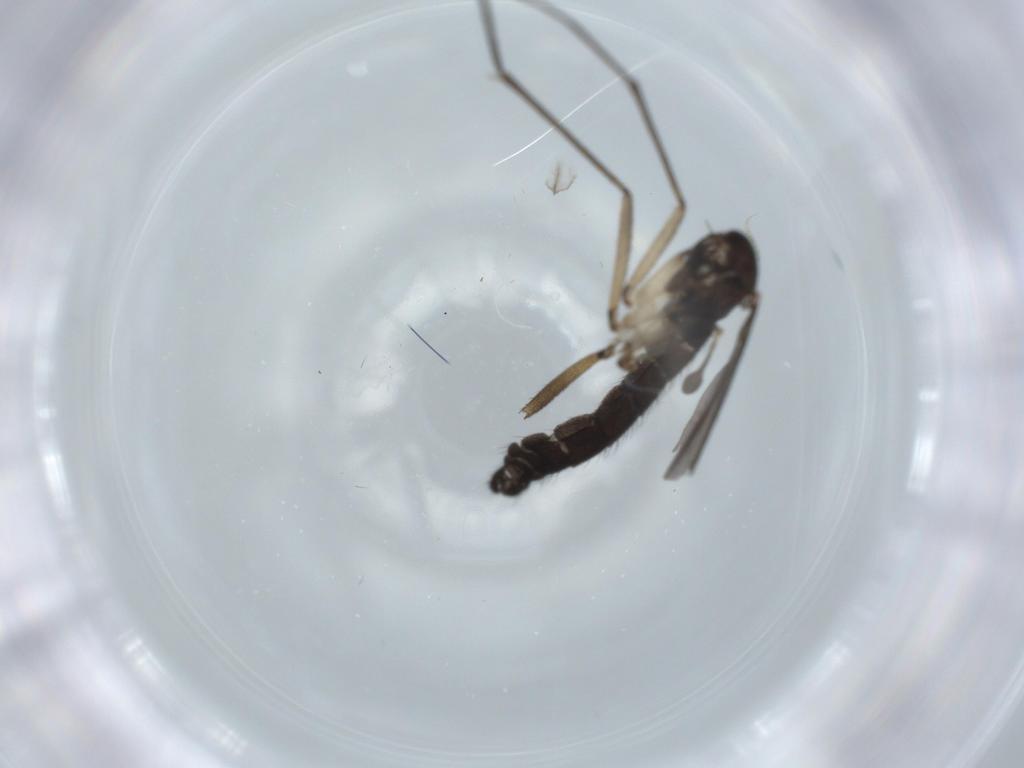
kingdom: Animalia
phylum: Arthropoda
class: Insecta
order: Diptera
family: Sciaridae
